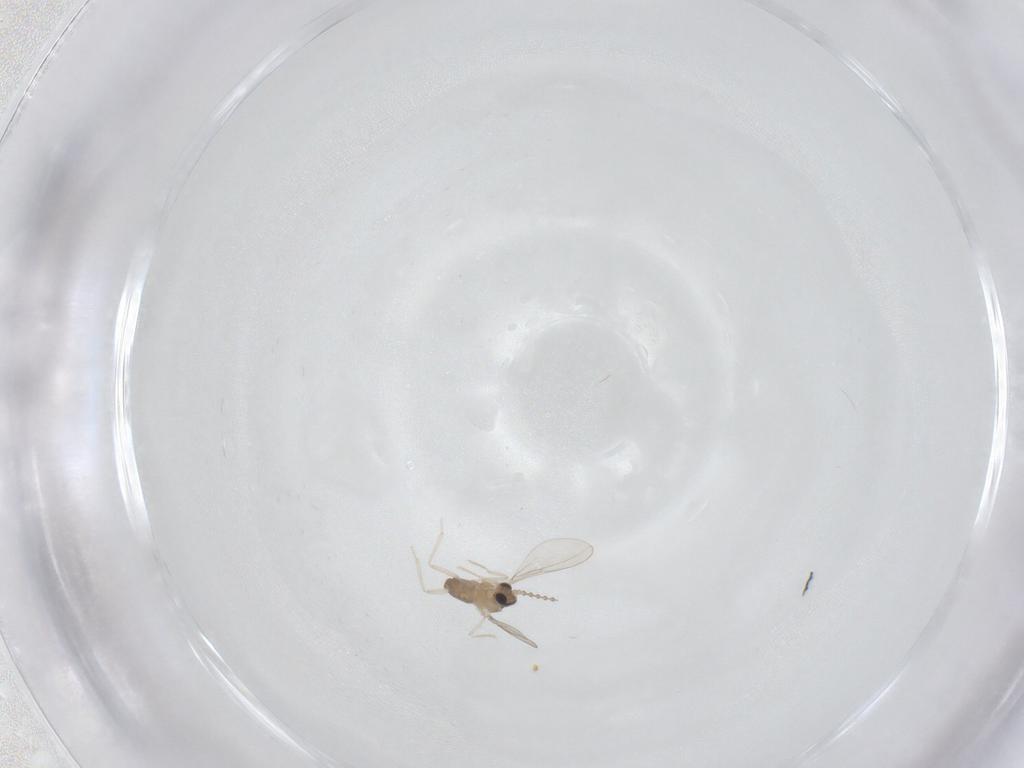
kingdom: Animalia
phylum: Arthropoda
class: Insecta
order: Diptera
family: Cecidomyiidae
